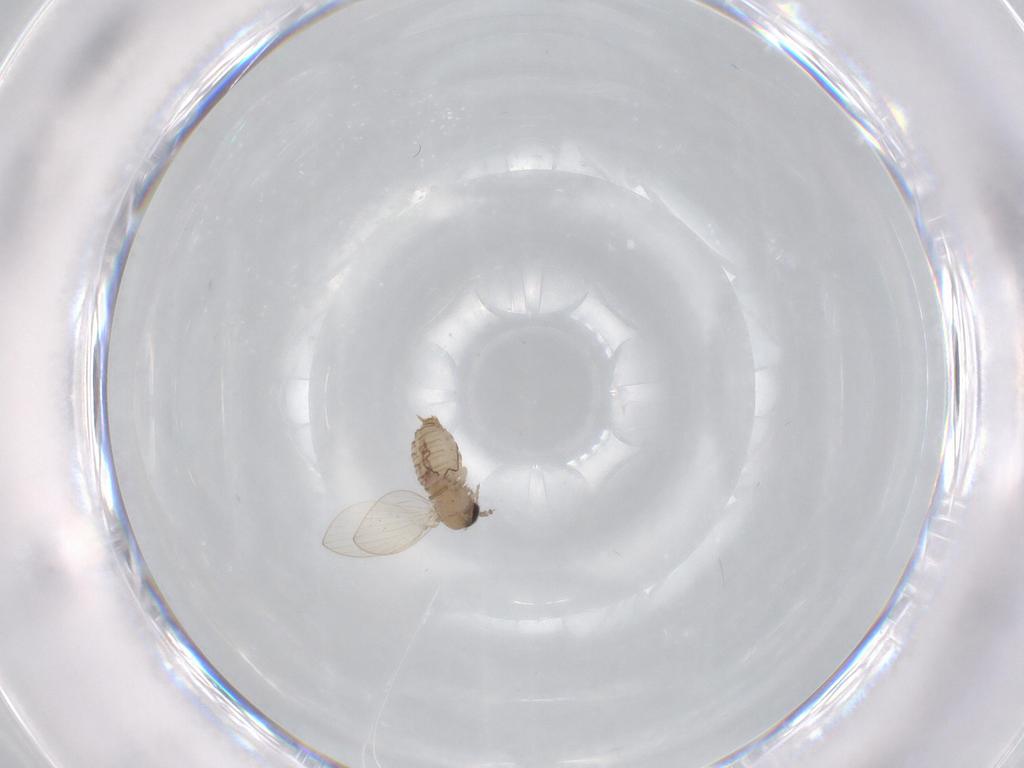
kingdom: Animalia
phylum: Arthropoda
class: Insecta
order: Diptera
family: Psychodidae
